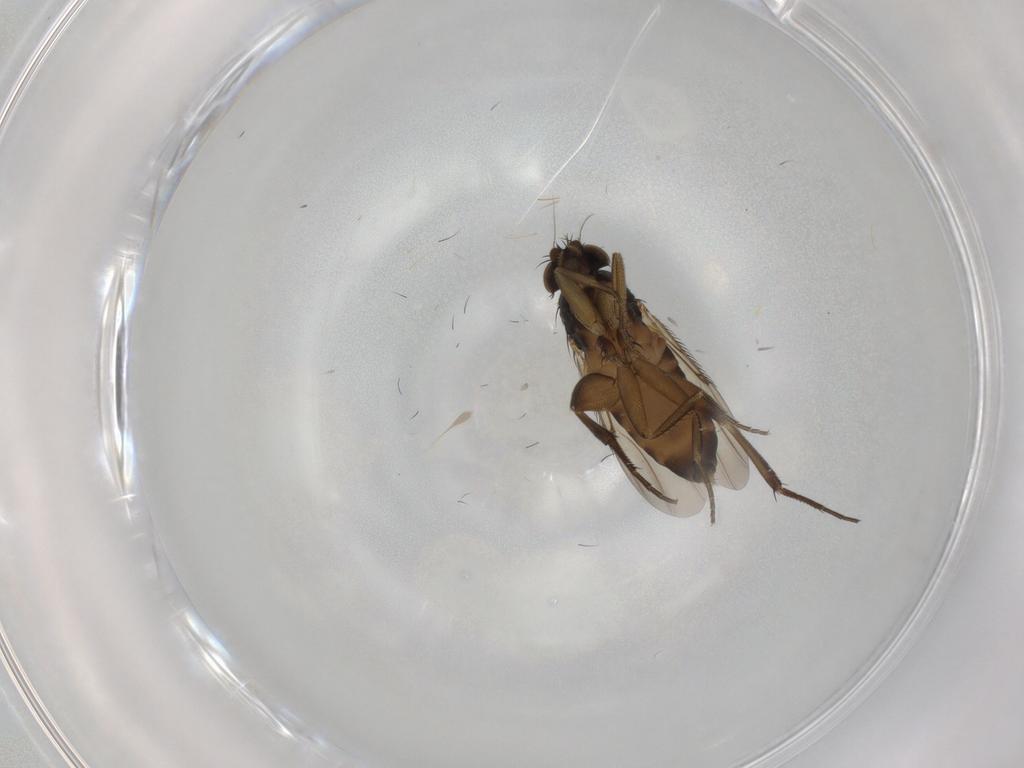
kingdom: Animalia
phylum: Arthropoda
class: Insecta
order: Diptera
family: Phoridae
